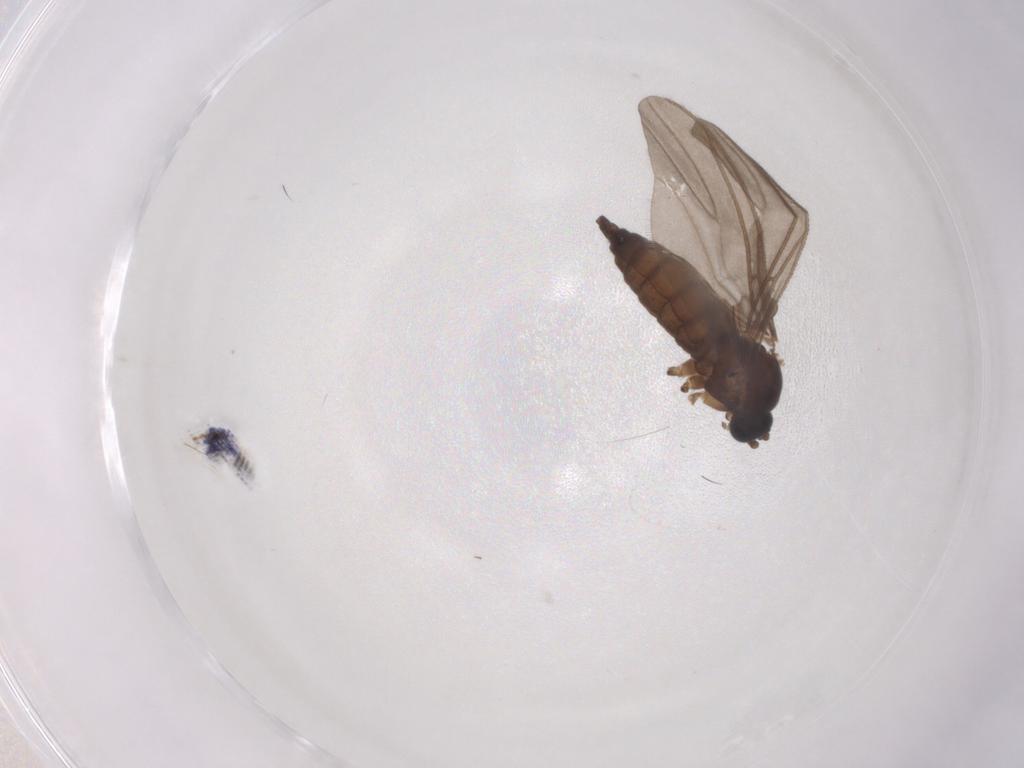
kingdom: Animalia
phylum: Arthropoda
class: Insecta
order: Diptera
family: Sciaridae
